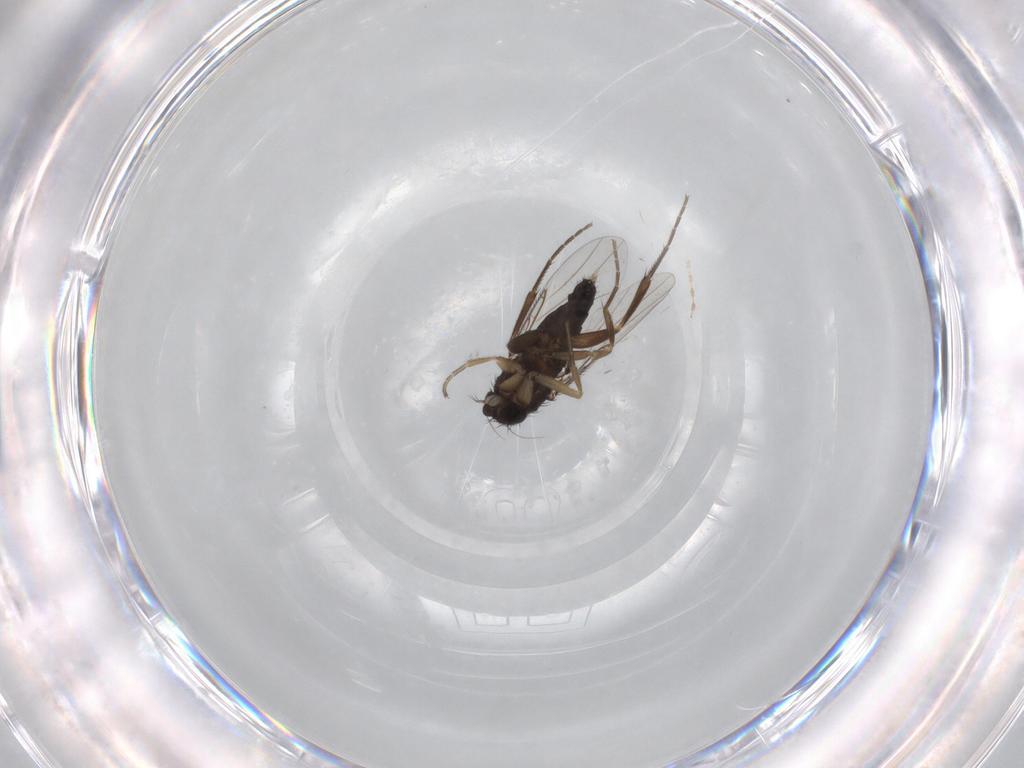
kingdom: Animalia
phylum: Arthropoda
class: Insecta
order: Diptera
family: Phoridae
